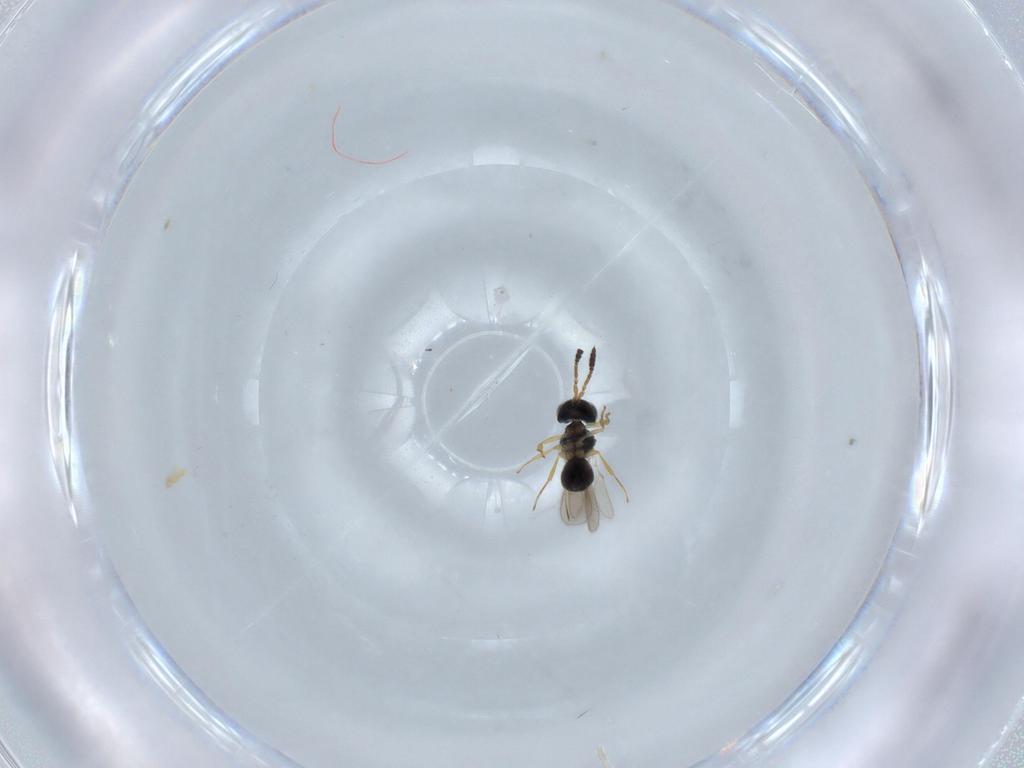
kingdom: Animalia
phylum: Arthropoda
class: Insecta
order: Hymenoptera
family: Scelionidae
